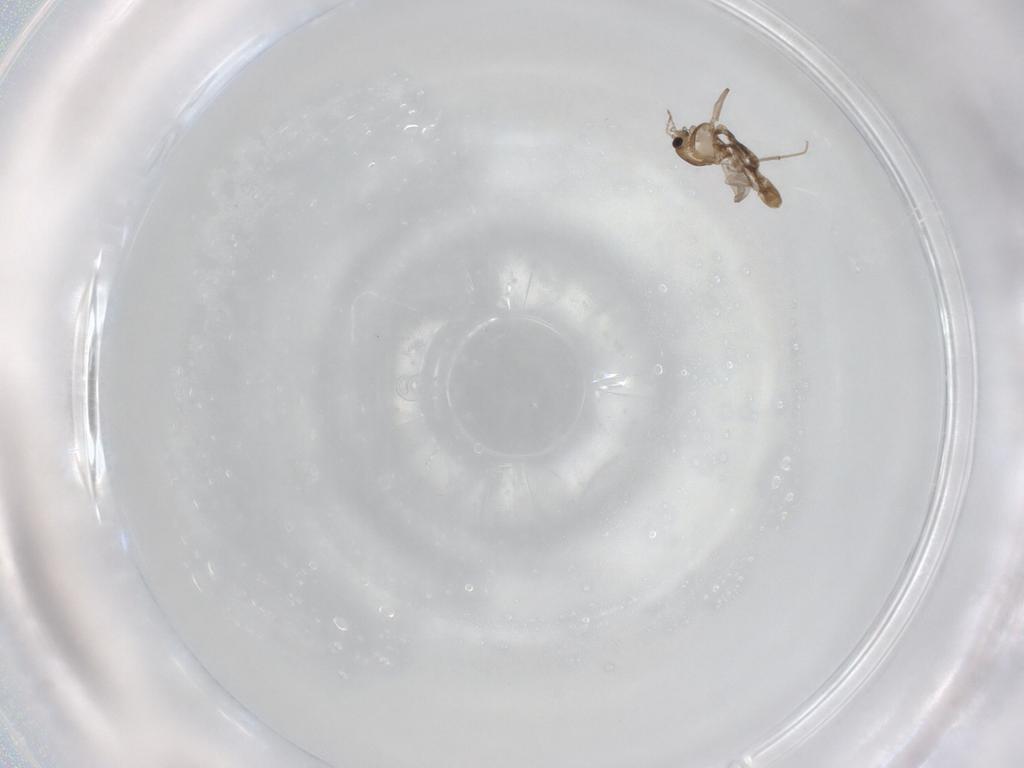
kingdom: Animalia
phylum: Arthropoda
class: Insecta
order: Diptera
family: Chironomidae
